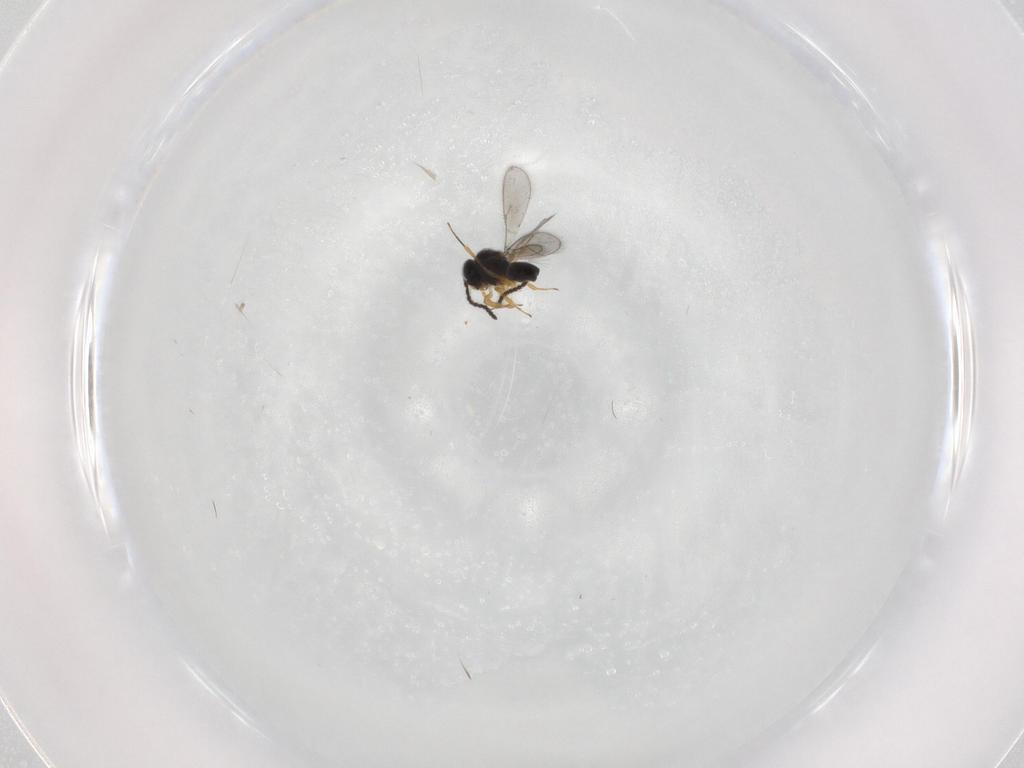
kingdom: Animalia
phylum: Arthropoda
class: Insecta
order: Hymenoptera
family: Scelionidae
